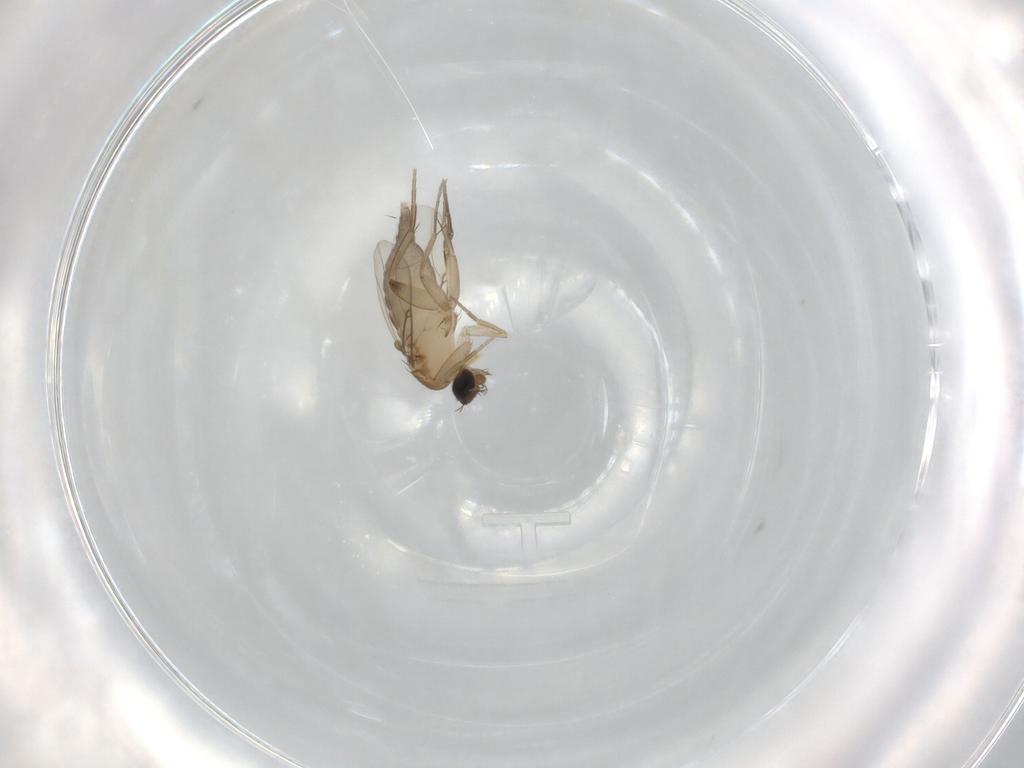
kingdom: Animalia
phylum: Arthropoda
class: Insecta
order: Diptera
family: Phoridae
